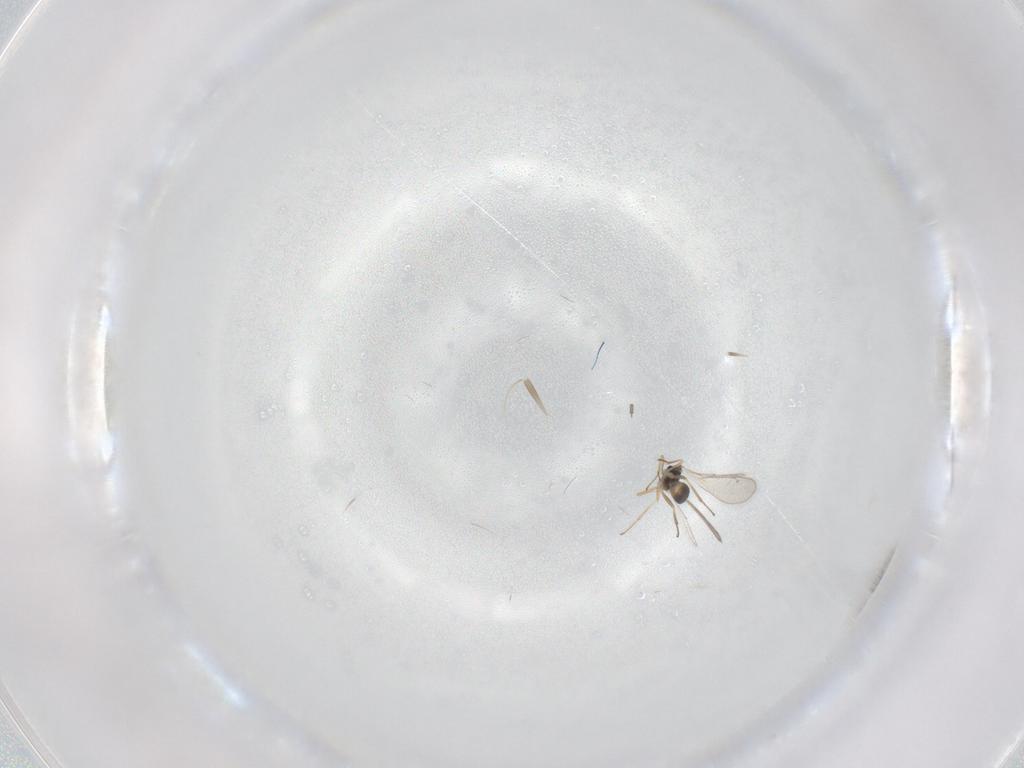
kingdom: Animalia
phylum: Arthropoda
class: Insecta
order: Hymenoptera
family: Eulophidae
